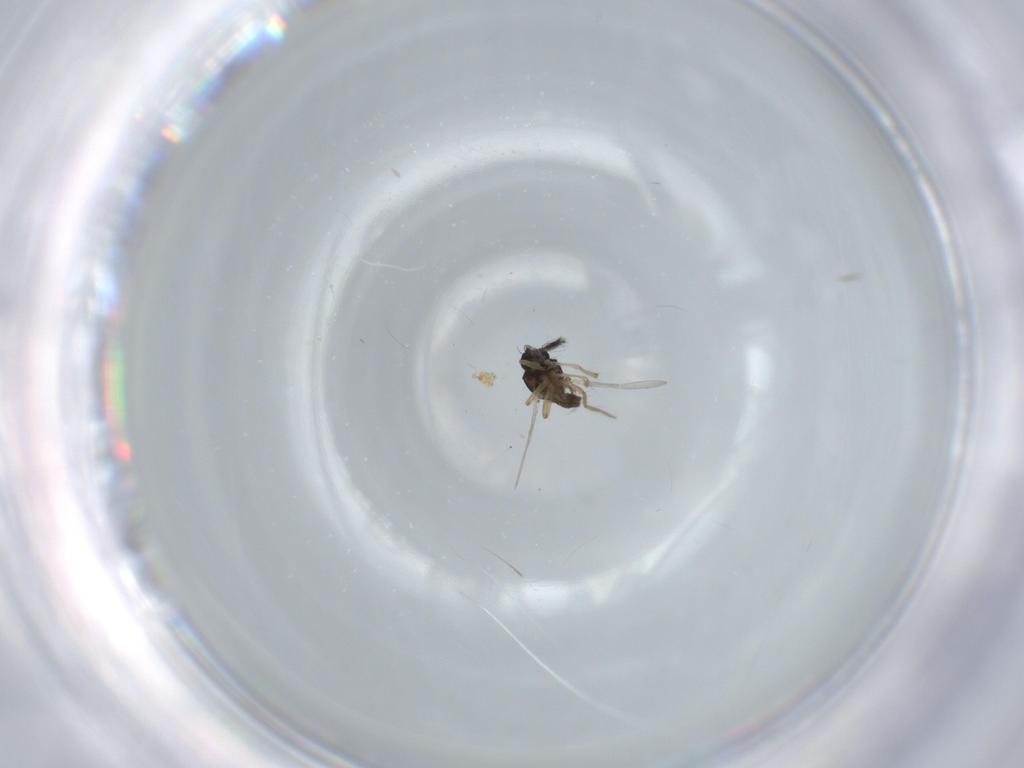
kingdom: Animalia
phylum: Arthropoda
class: Insecta
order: Diptera
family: Ceratopogonidae
